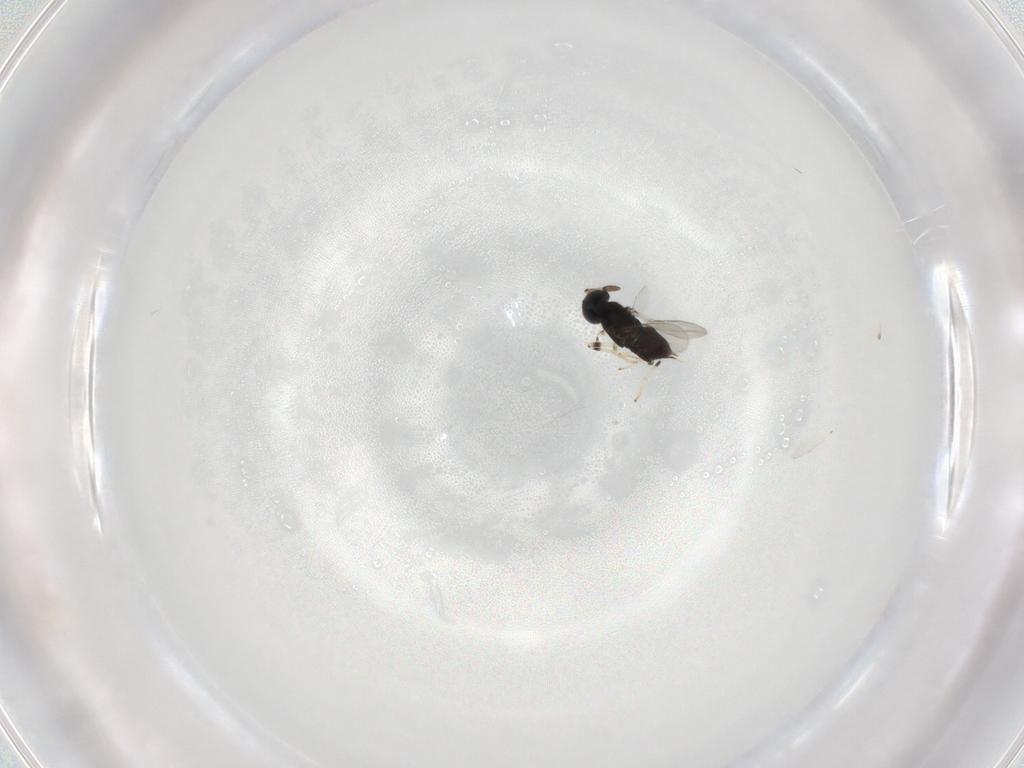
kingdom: Animalia
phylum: Arthropoda
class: Insecta
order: Hymenoptera
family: Encyrtidae
